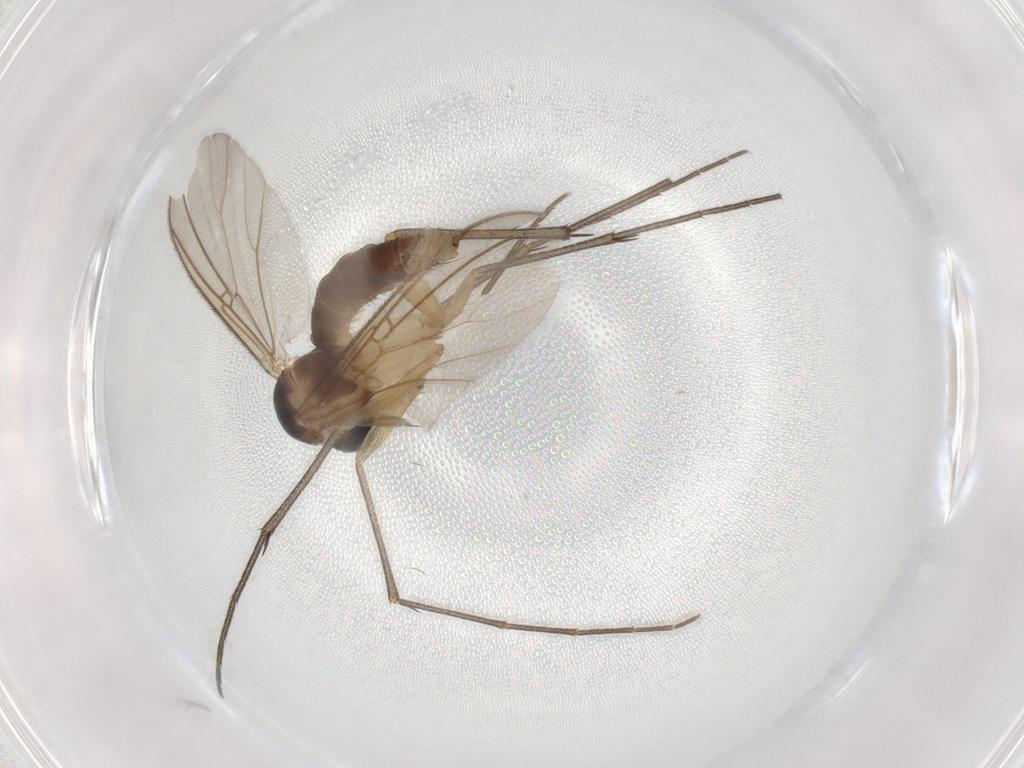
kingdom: Animalia
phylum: Arthropoda
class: Insecta
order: Diptera
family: Sciaridae
